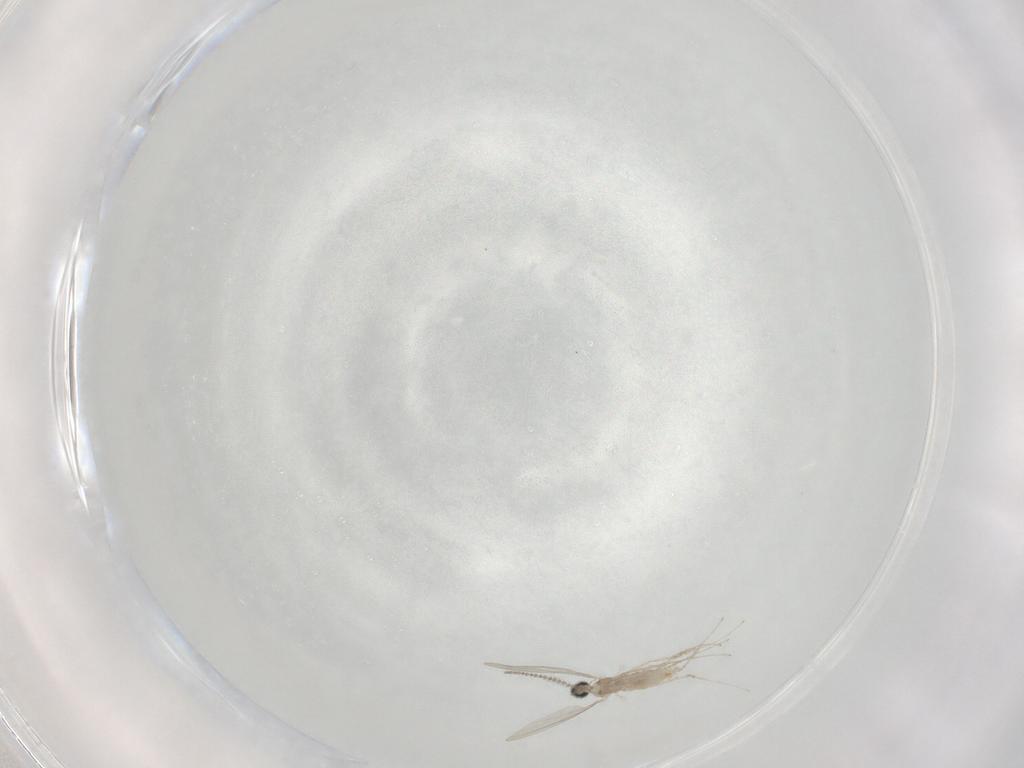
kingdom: Animalia
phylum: Arthropoda
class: Insecta
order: Diptera
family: Cecidomyiidae
